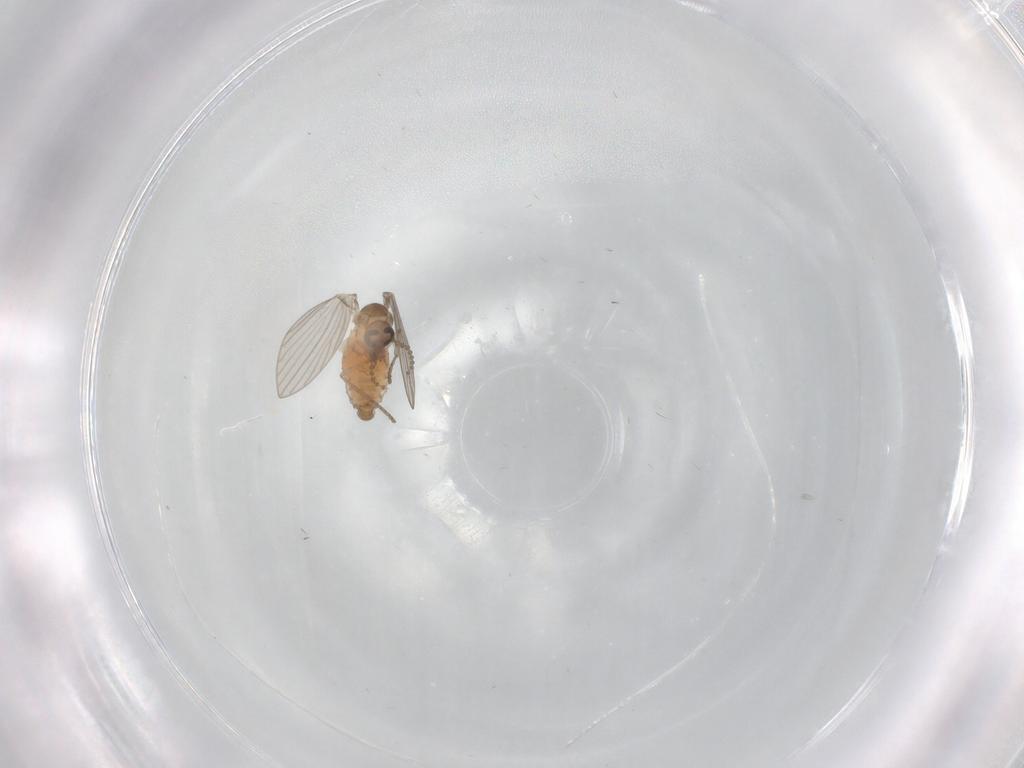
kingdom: Animalia
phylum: Arthropoda
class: Insecta
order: Diptera
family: Psychodidae
